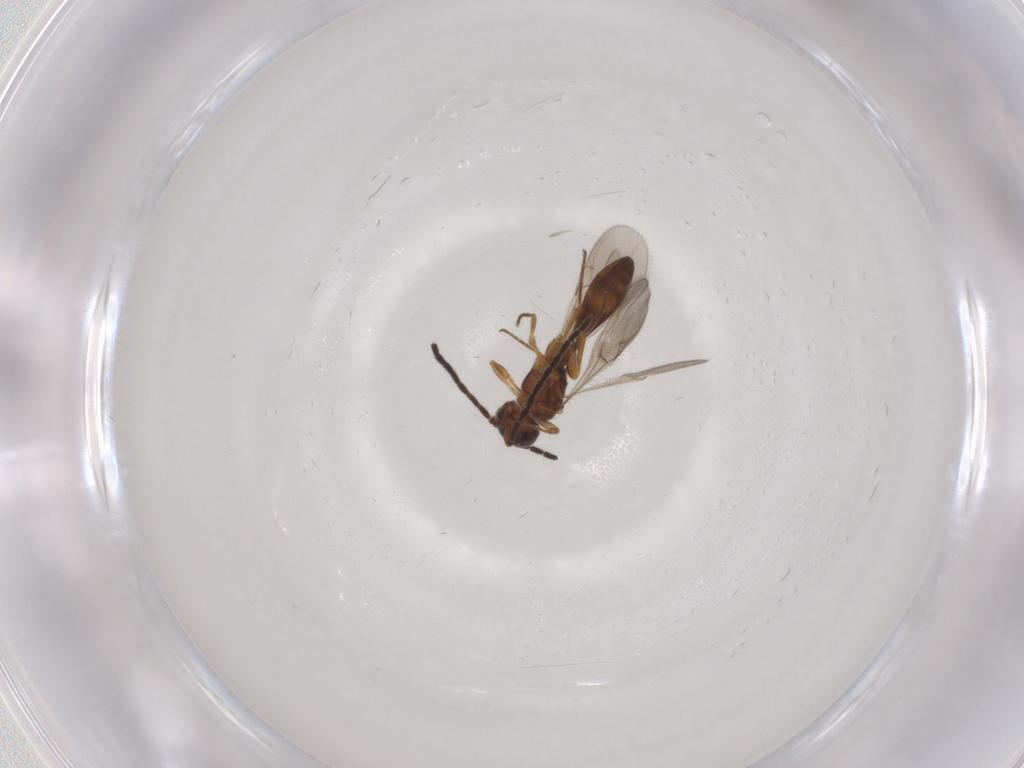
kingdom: Animalia
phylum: Arthropoda
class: Insecta
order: Hymenoptera
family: Scelionidae
